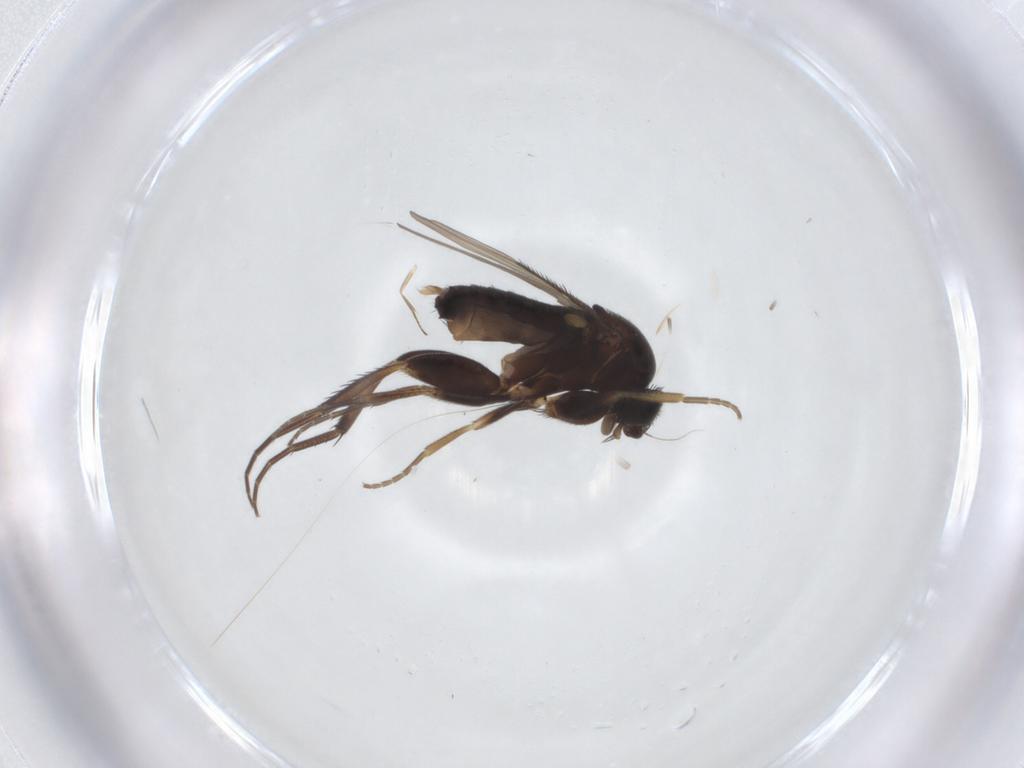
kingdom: Animalia
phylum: Arthropoda
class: Insecta
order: Diptera
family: Phoridae
